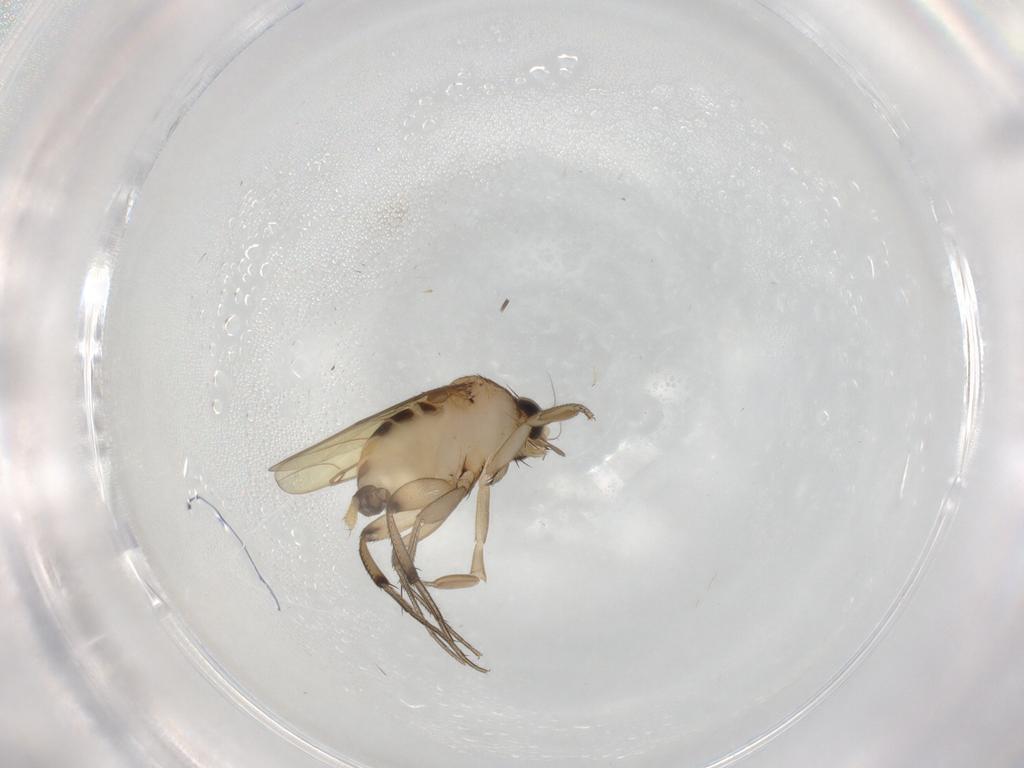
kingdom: Animalia
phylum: Arthropoda
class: Insecta
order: Diptera
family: Phoridae
